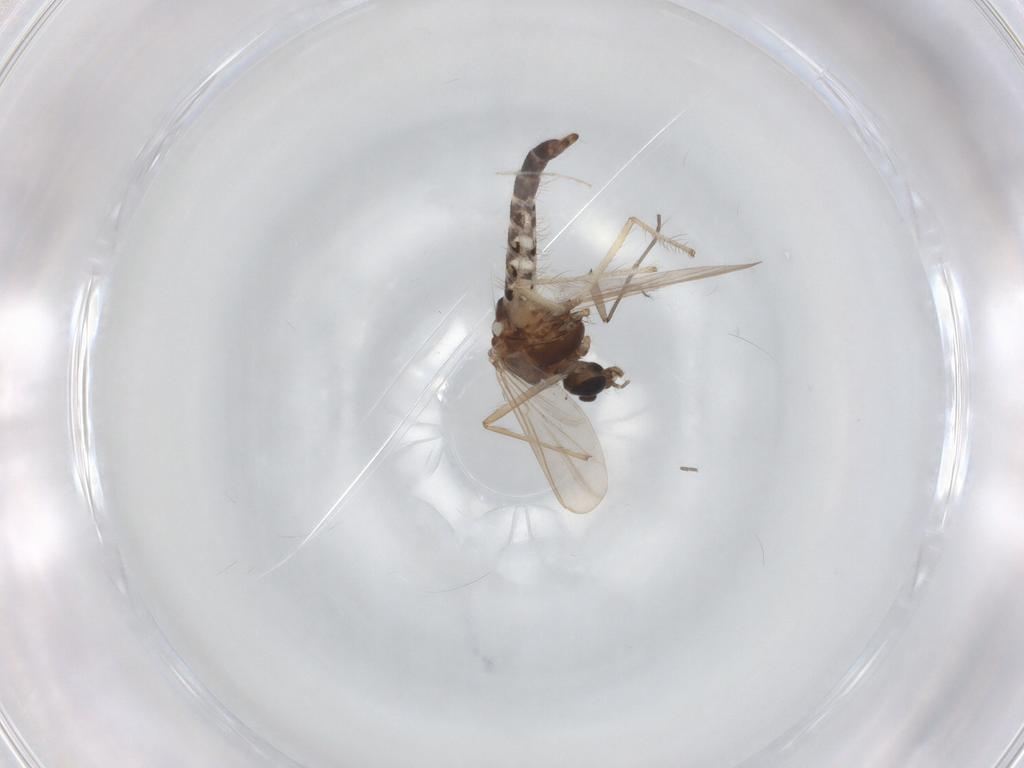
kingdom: Animalia
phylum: Arthropoda
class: Insecta
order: Diptera
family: Chironomidae
